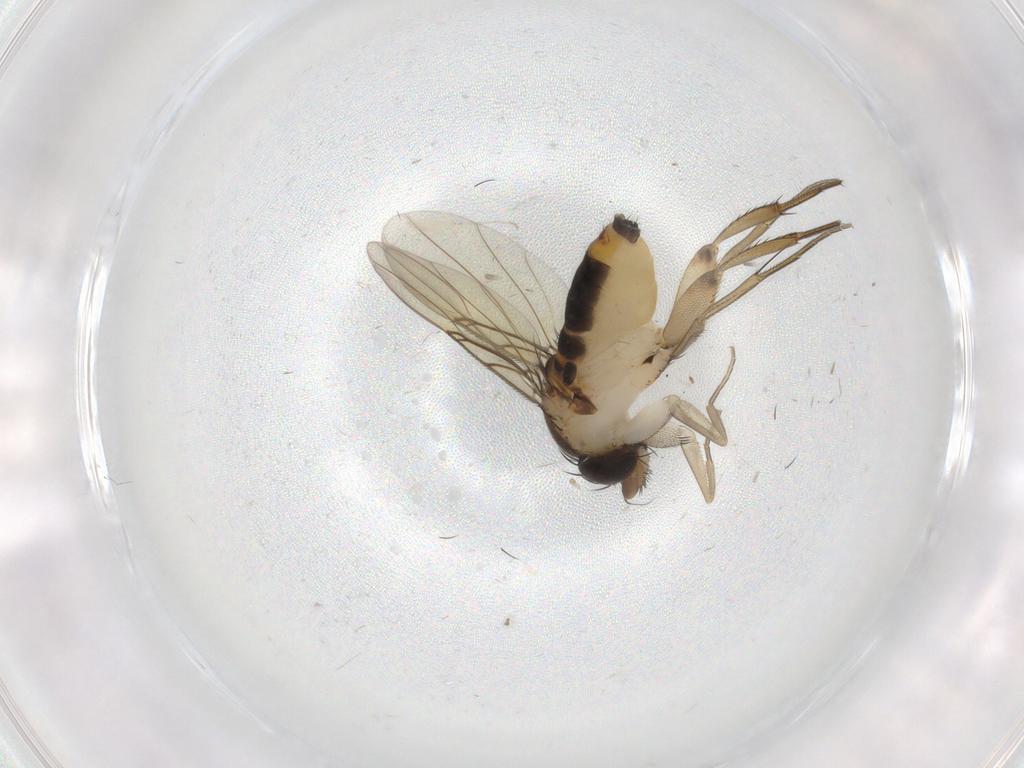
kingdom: Animalia
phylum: Arthropoda
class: Insecta
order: Diptera
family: Phoridae
